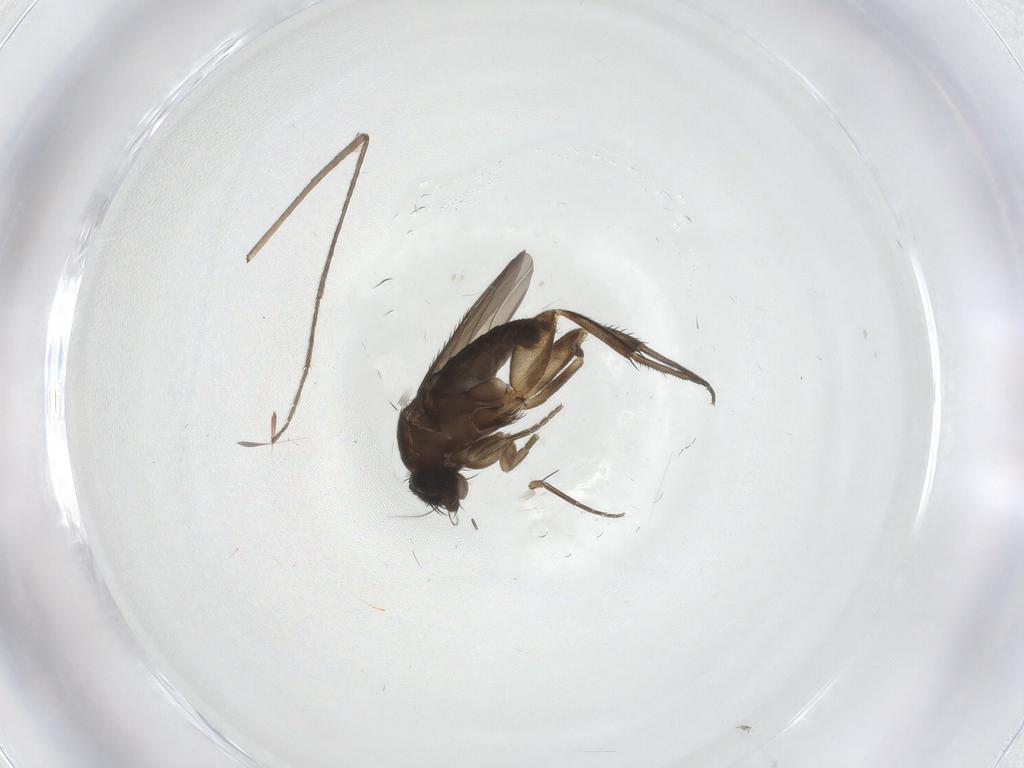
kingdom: Animalia
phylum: Arthropoda
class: Insecta
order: Diptera
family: Phoridae
